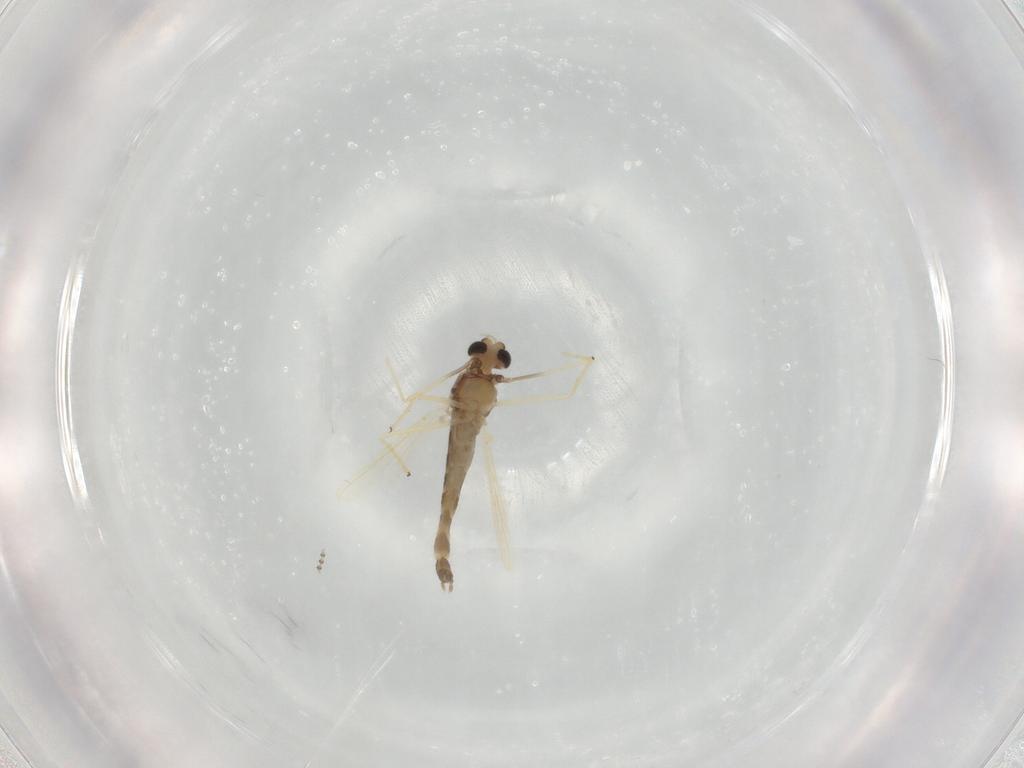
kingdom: Animalia
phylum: Arthropoda
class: Insecta
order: Diptera
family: Chironomidae
